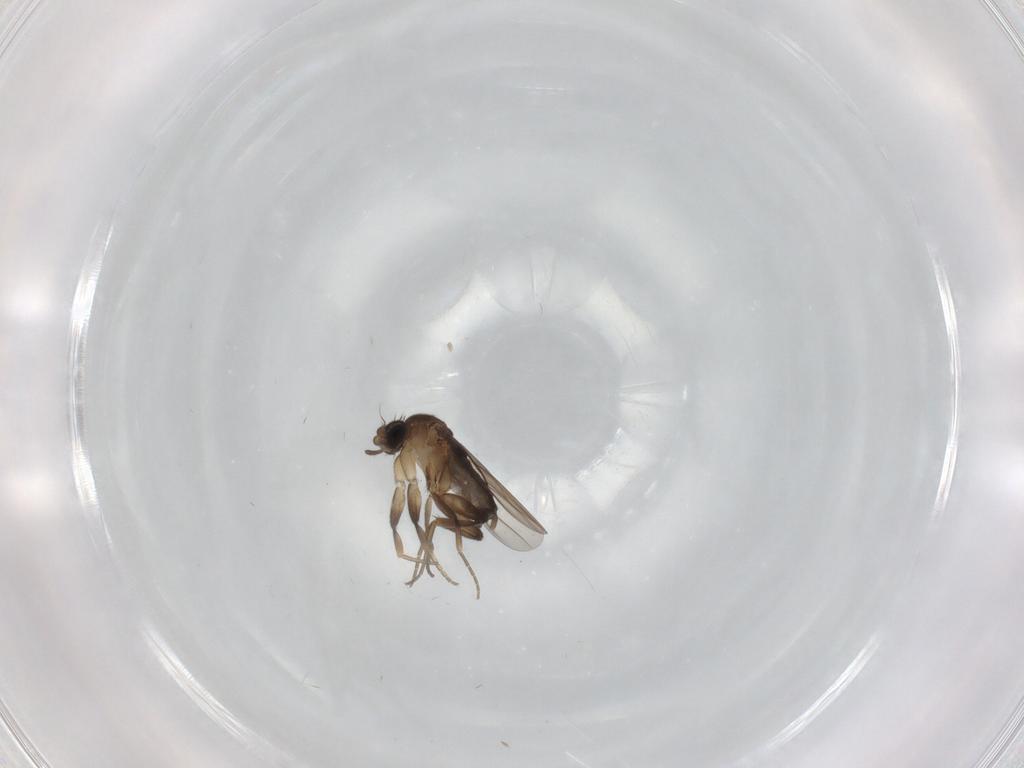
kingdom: Animalia
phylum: Arthropoda
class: Insecta
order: Diptera
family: Phoridae
